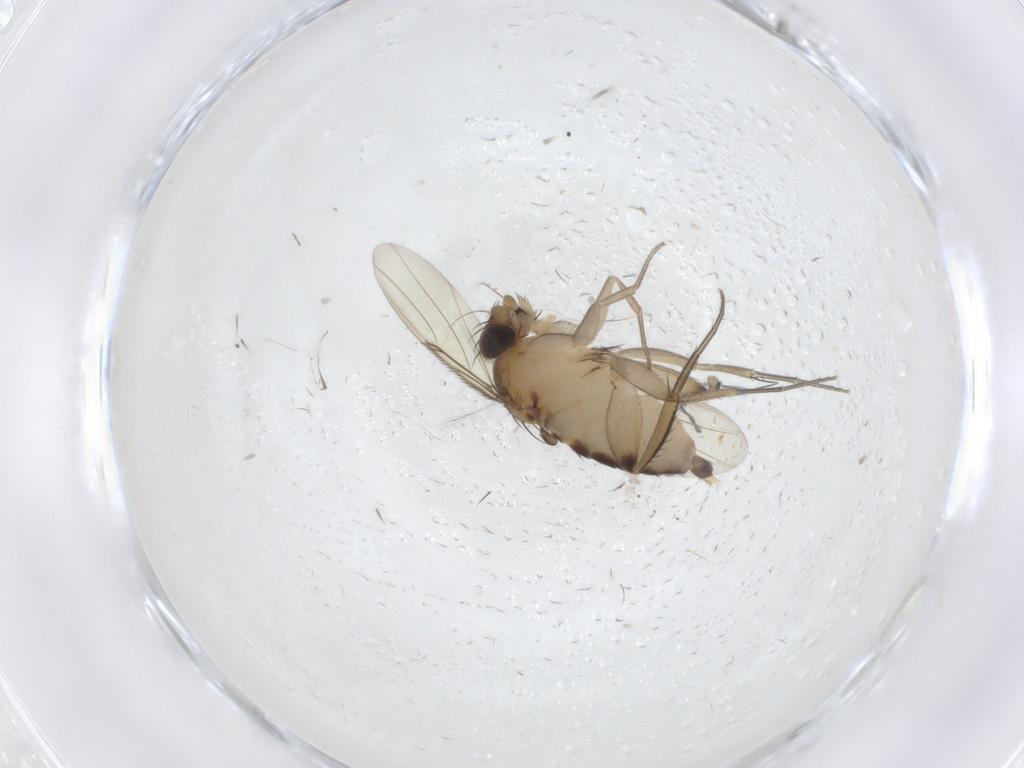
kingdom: Animalia
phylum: Arthropoda
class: Insecta
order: Diptera
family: Phoridae
